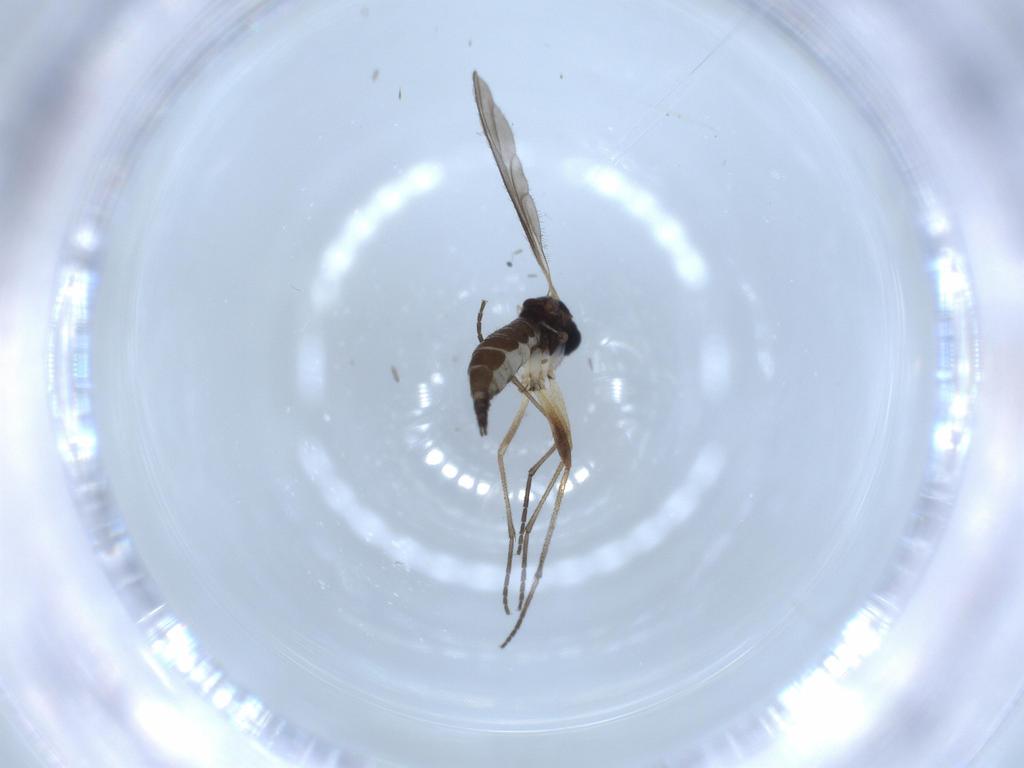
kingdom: Animalia
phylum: Arthropoda
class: Insecta
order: Diptera
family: Sciaridae
